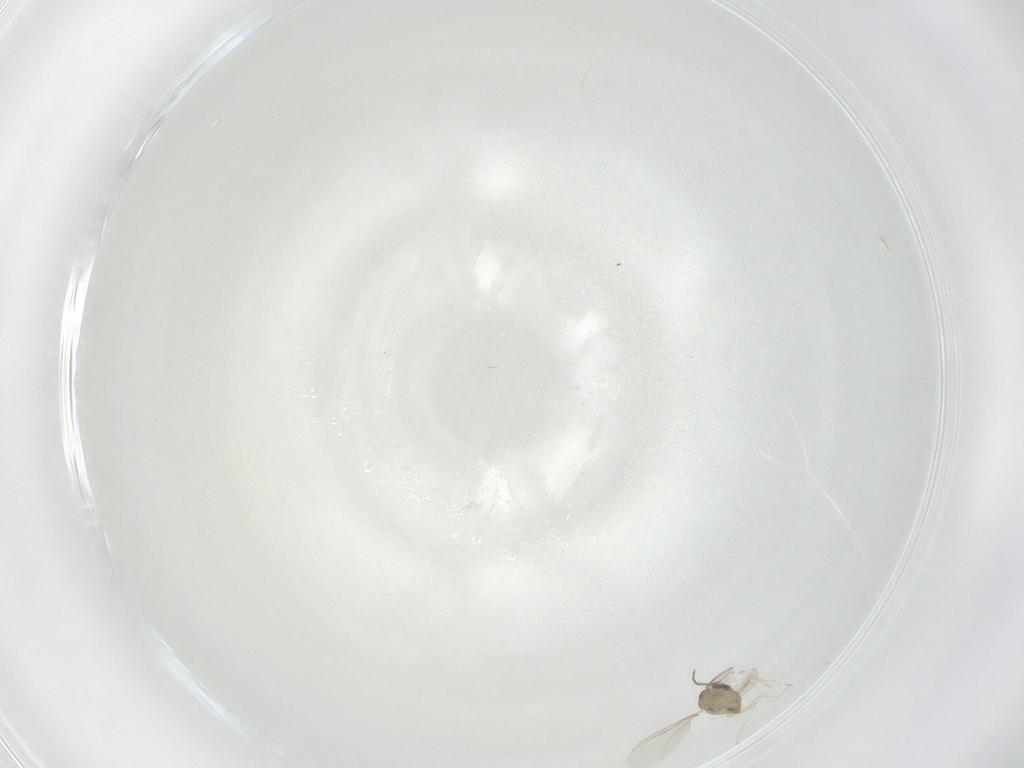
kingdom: Animalia
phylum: Arthropoda
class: Insecta
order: Diptera
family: Cecidomyiidae
